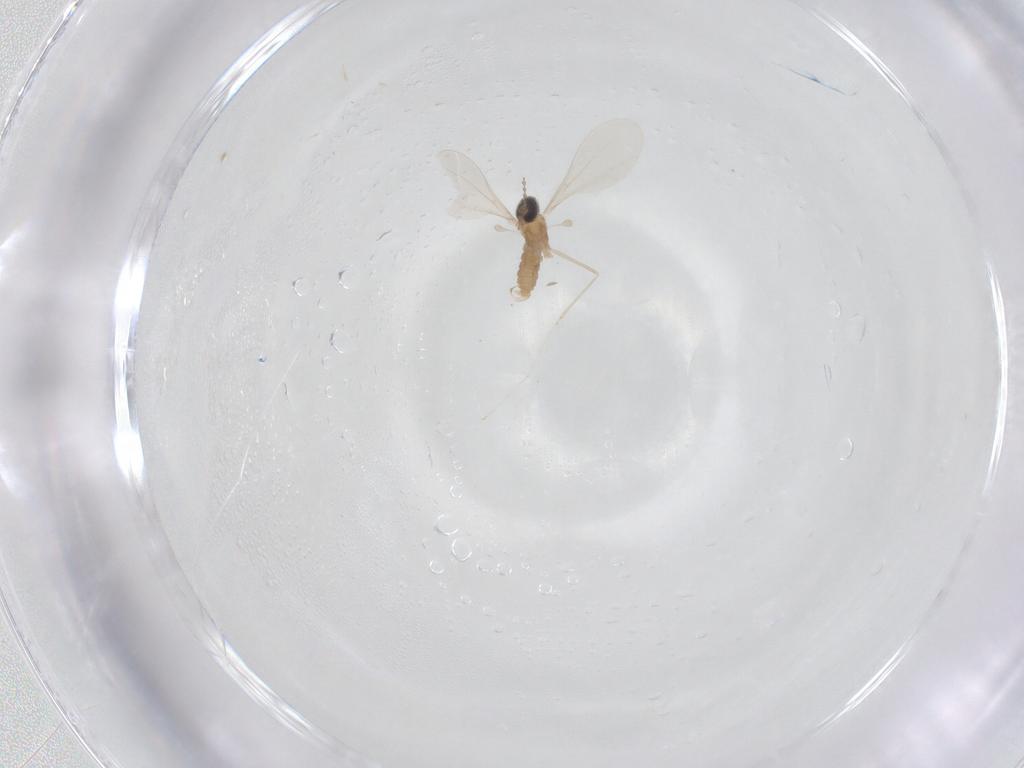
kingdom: Animalia
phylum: Arthropoda
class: Insecta
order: Diptera
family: Cecidomyiidae
